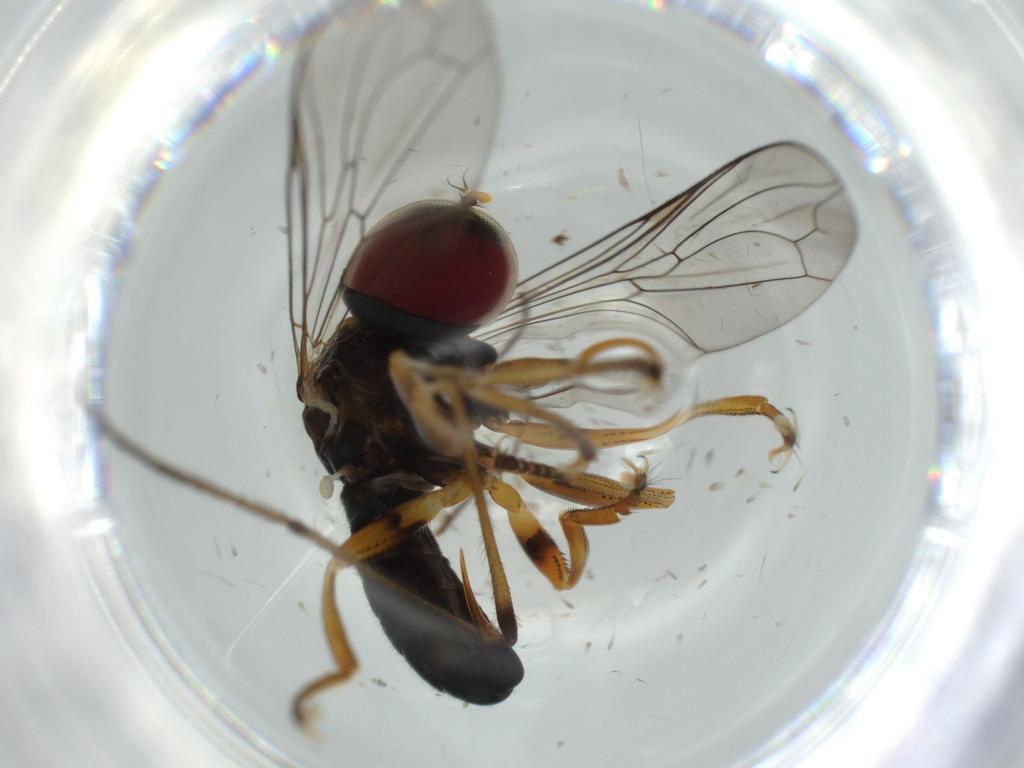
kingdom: Animalia
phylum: Arthropoda
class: Insecta
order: Diptera
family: Pipunculidae
